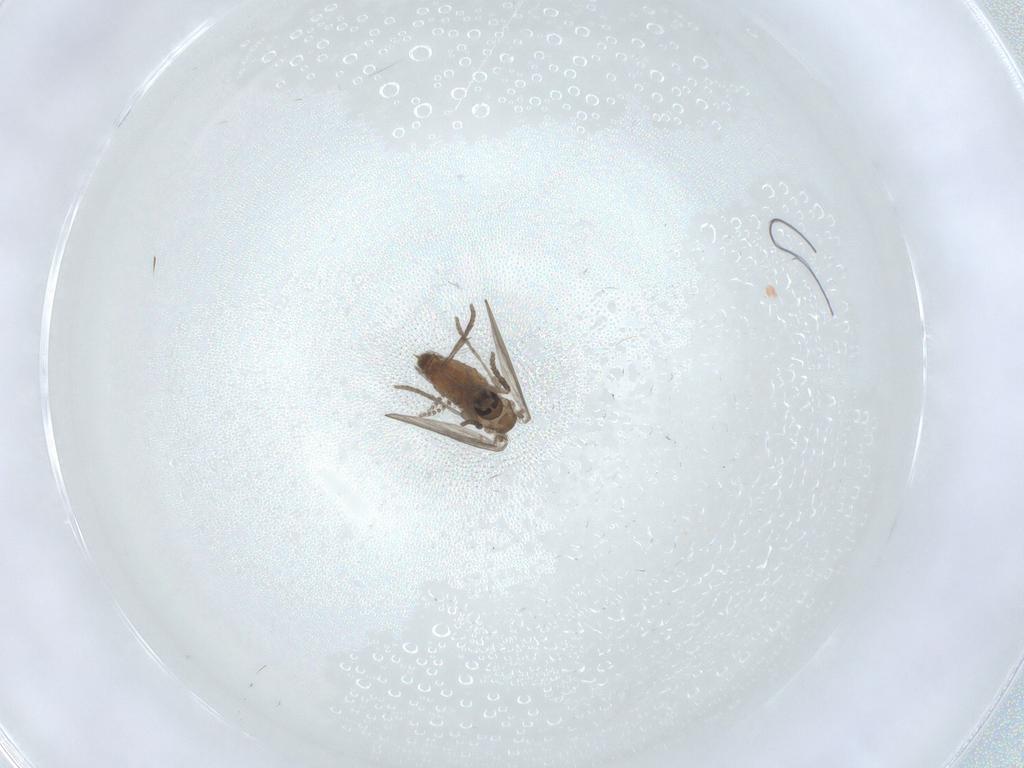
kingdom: Animalia
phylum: Arthropoda
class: Insecta
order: Diptera
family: Psychodidae
